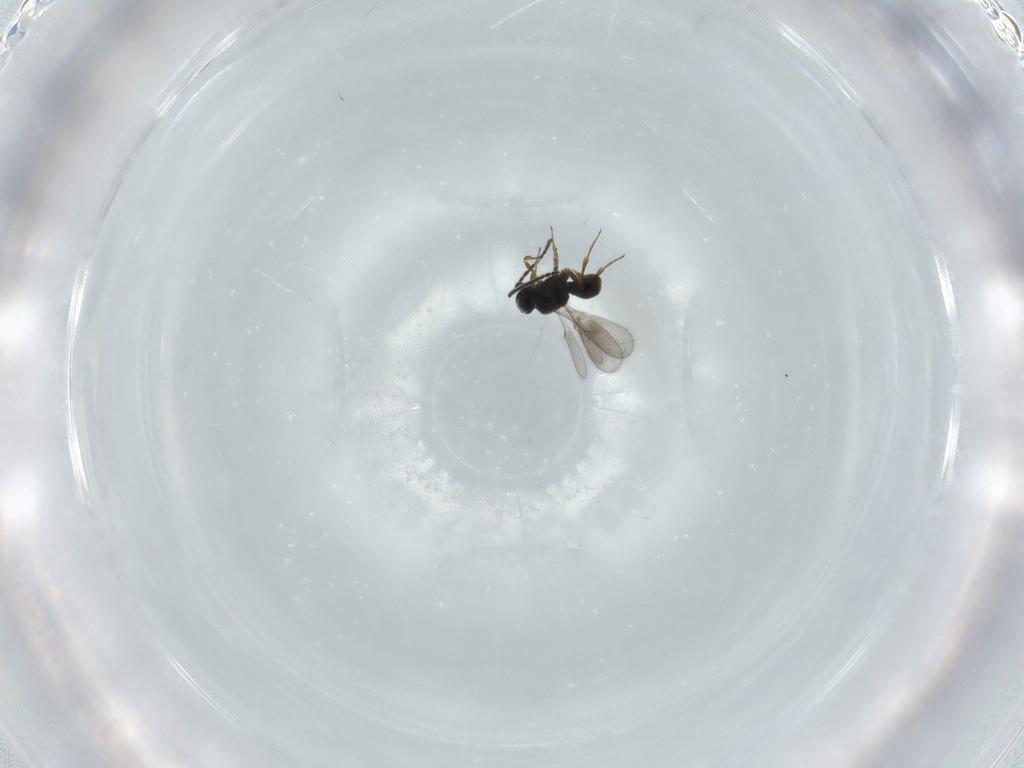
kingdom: Animalia
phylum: Arthropoda
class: Insecta
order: Hymenoptera
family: Scelionidae
